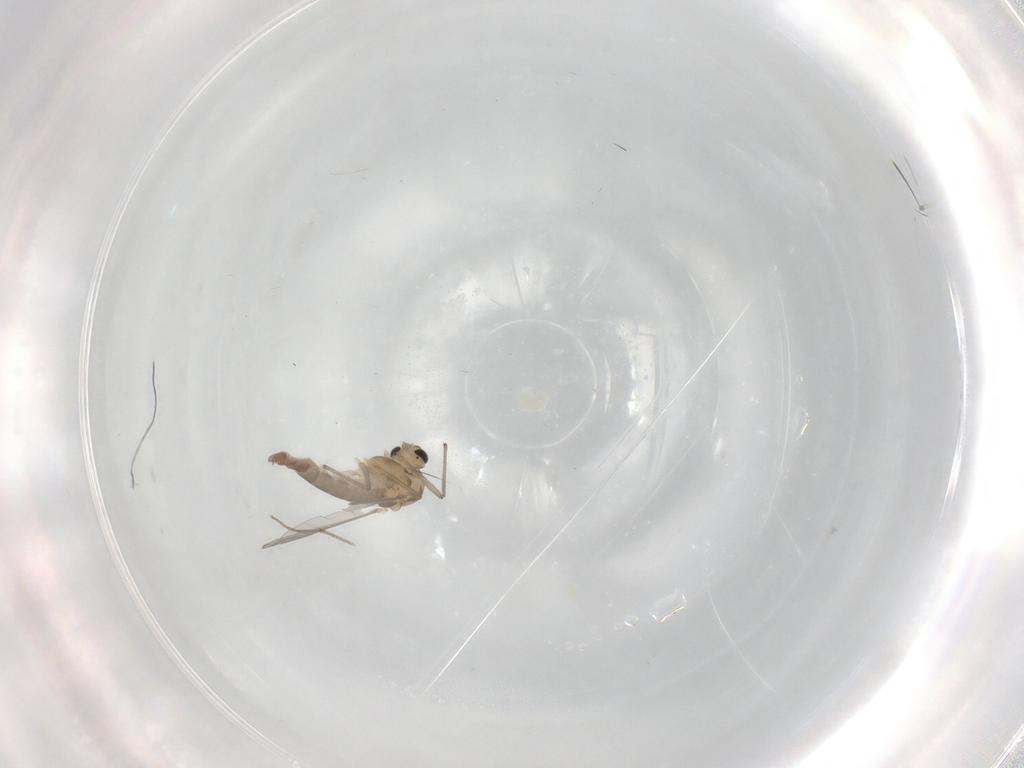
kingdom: Animalia
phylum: Arthropoda
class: Insecta
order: Diptera
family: Chironomidae
